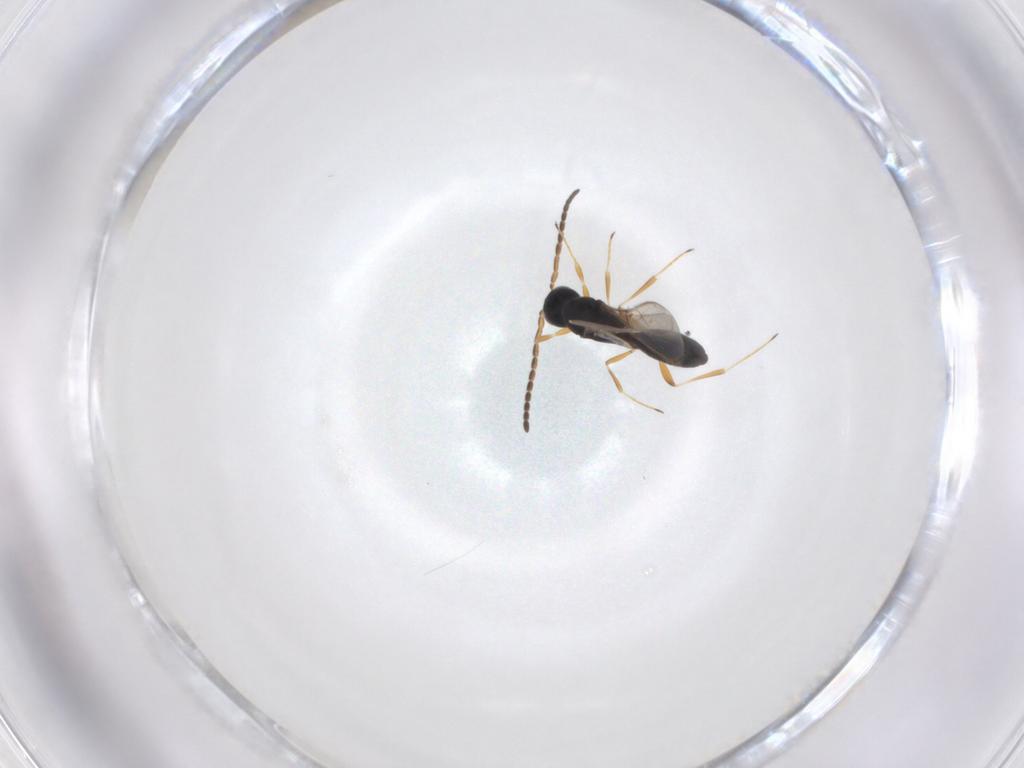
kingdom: Animalia
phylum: Arthropoda
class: Insecta
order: Hymenoptera
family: Scelionidae
